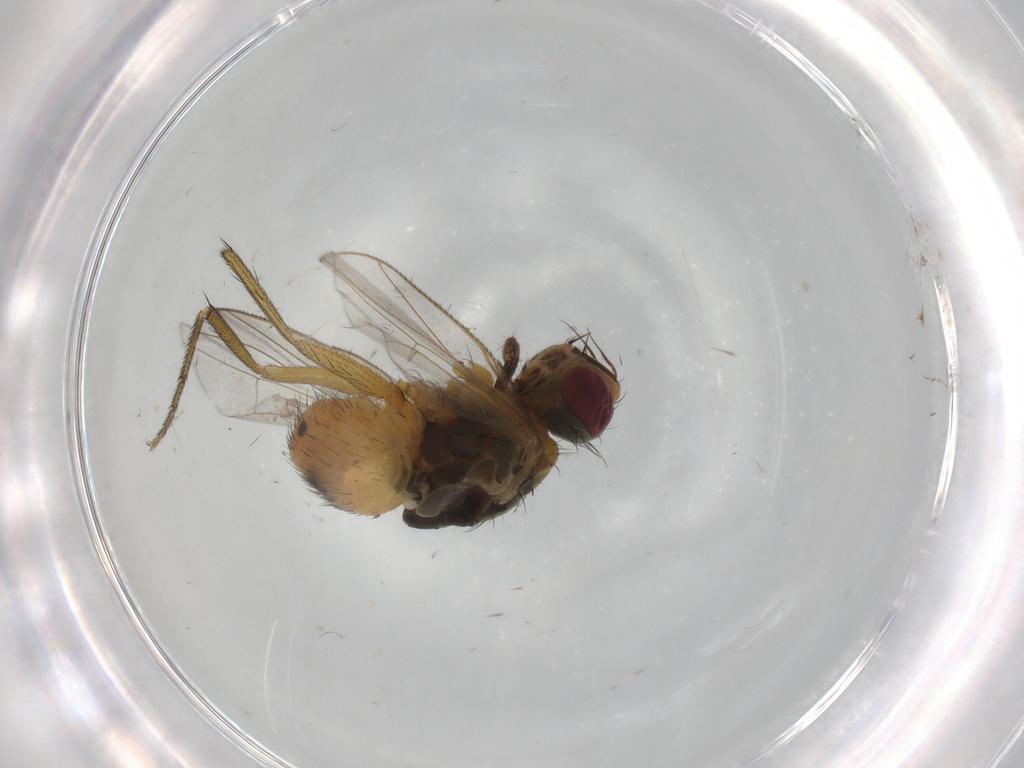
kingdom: Animalia
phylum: Arthropoda
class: Insecta
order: Diptera
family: Muscidae
